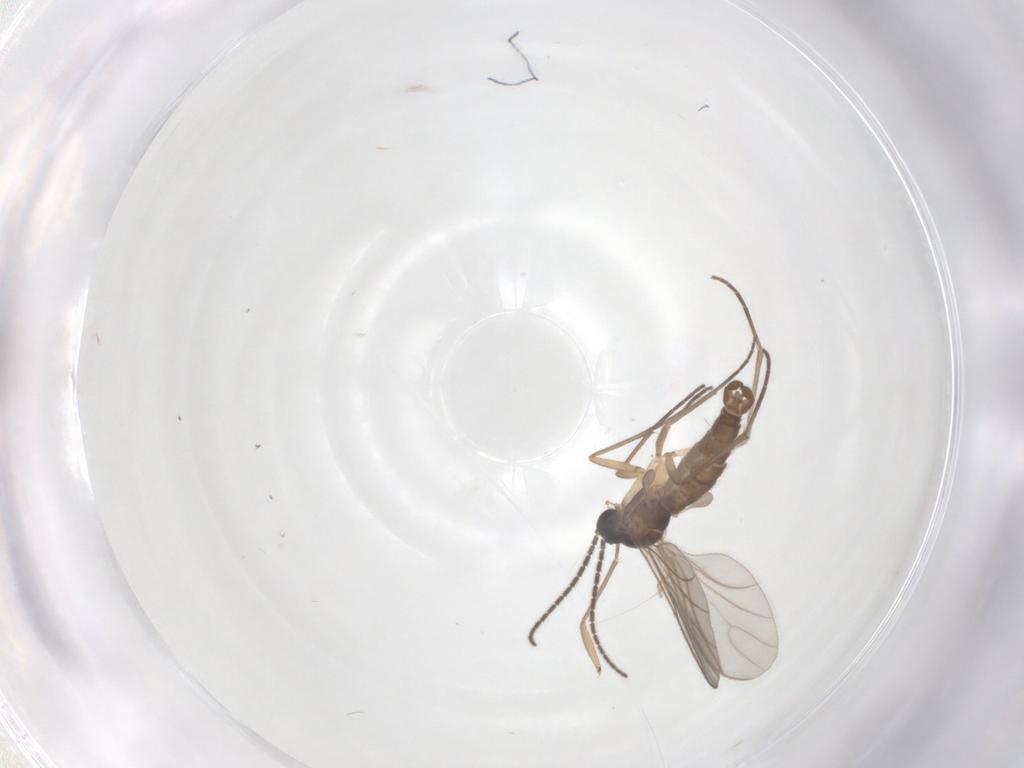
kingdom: Animalia
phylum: Arthropoda
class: Insecta
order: Diptera
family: Sciaridae
